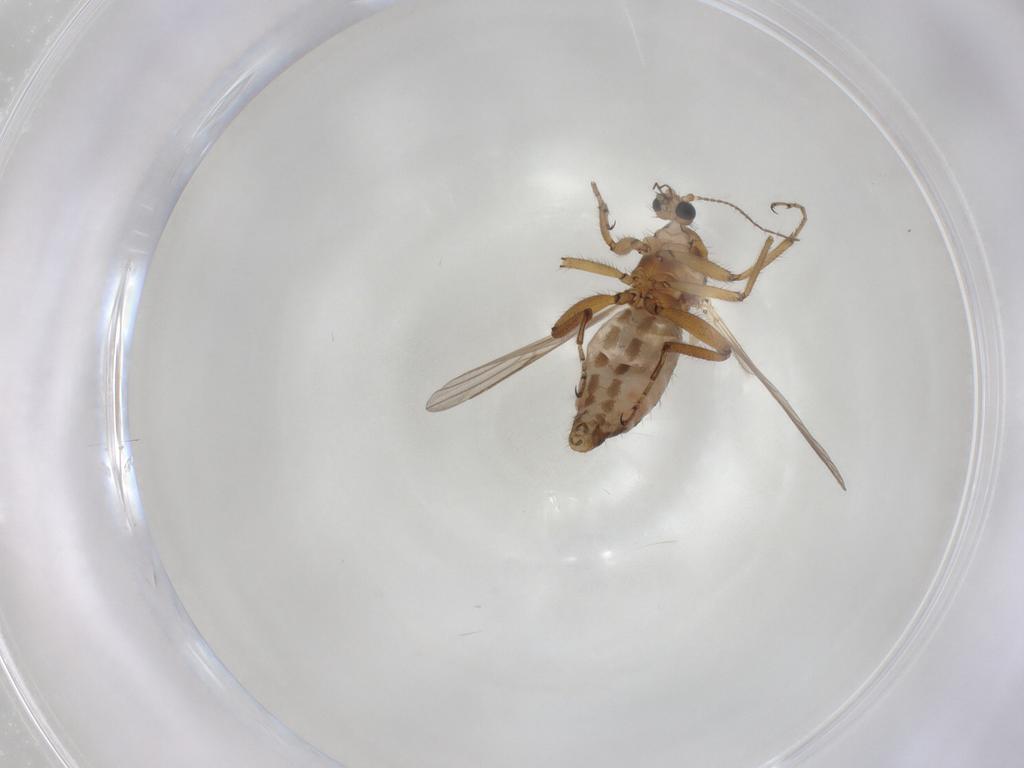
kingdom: Animalia
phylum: Arthropoda
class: Insecta
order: Diptera
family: Ceratopogonidae
